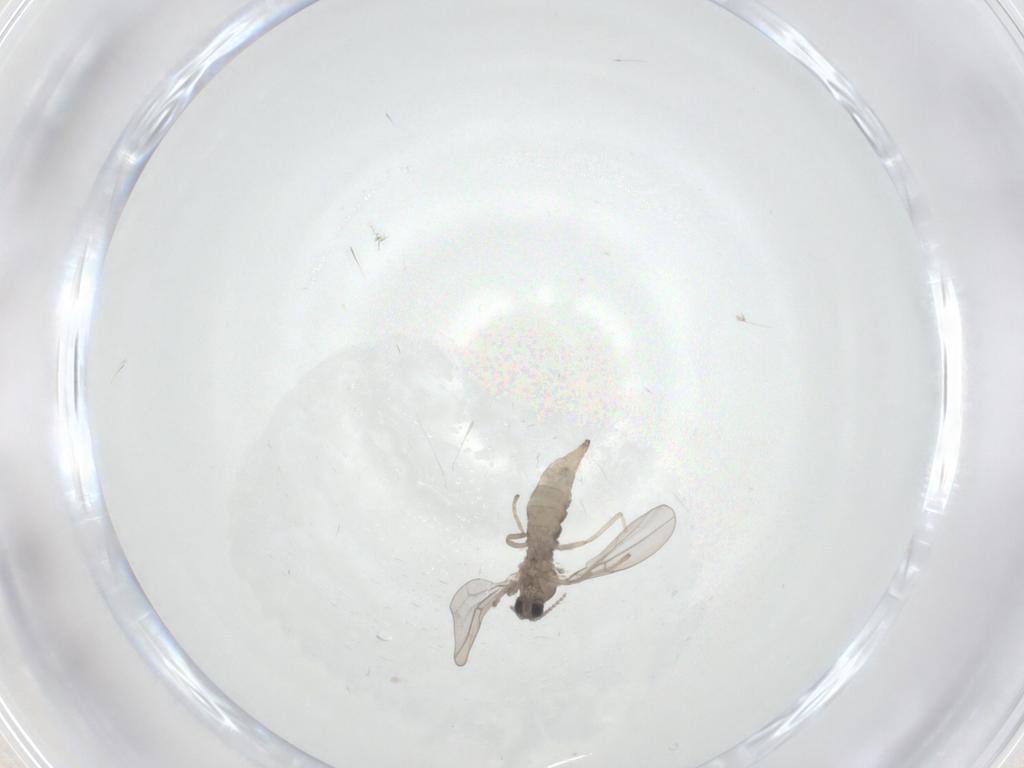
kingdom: Animalia
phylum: Arthropoda
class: Insecta
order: Diptera
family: Cecidomyiidae
